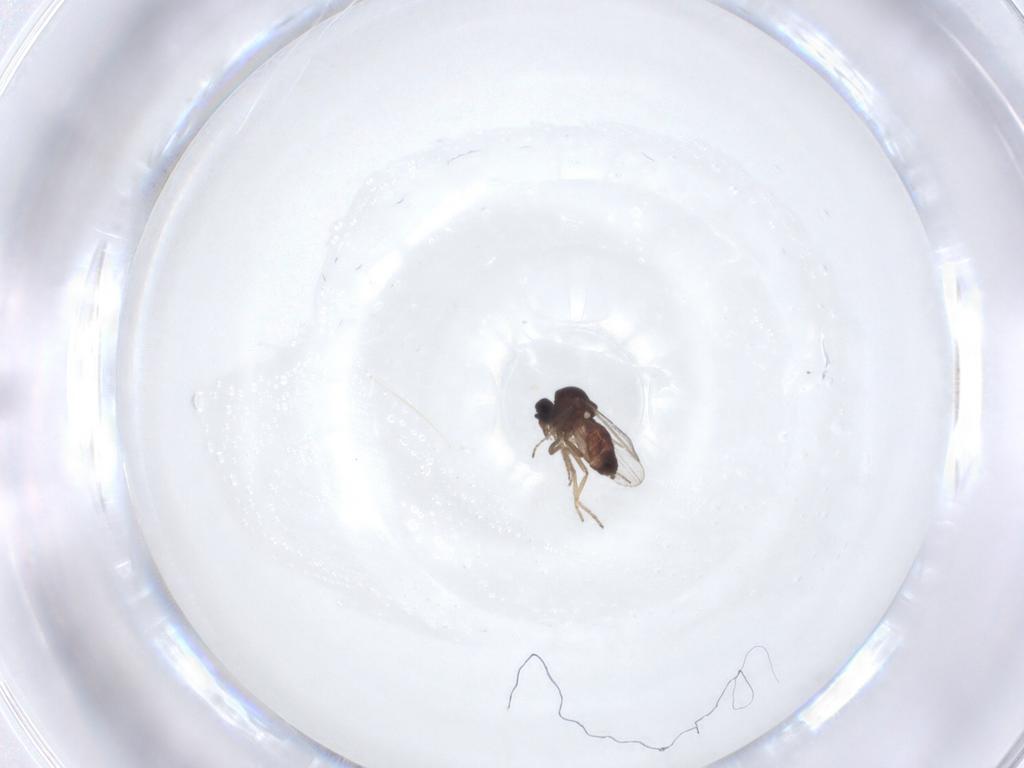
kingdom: Animalia
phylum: Arthropoda
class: Insecta
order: Diptera
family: Ceratopogonidae
